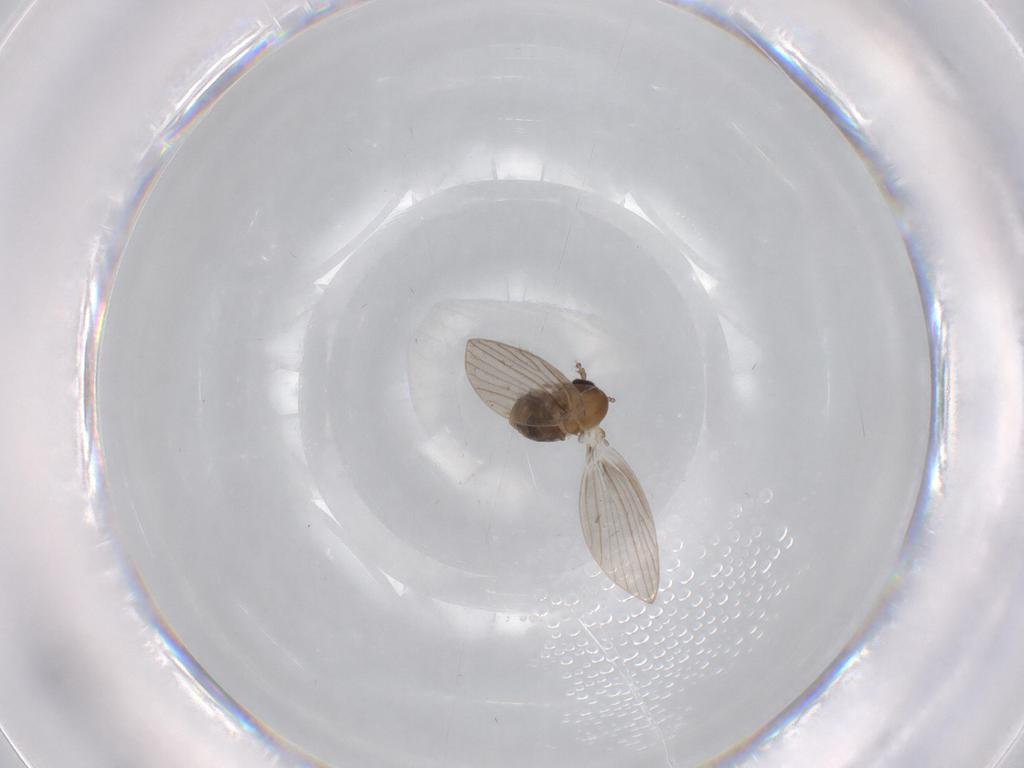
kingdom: Animalia
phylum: Arthropoda
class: Insecta
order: Diptera
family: Psychodidae
